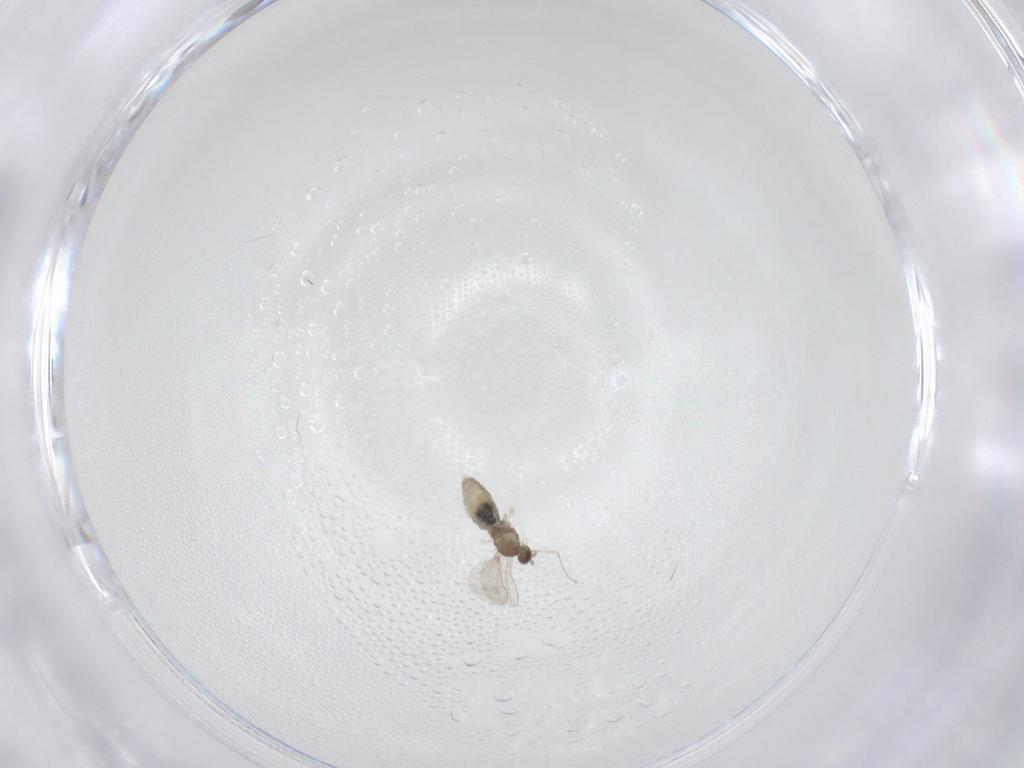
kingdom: Animalia
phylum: Arthropoda
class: Insecta
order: Diptera
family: Cecidomyiidae
